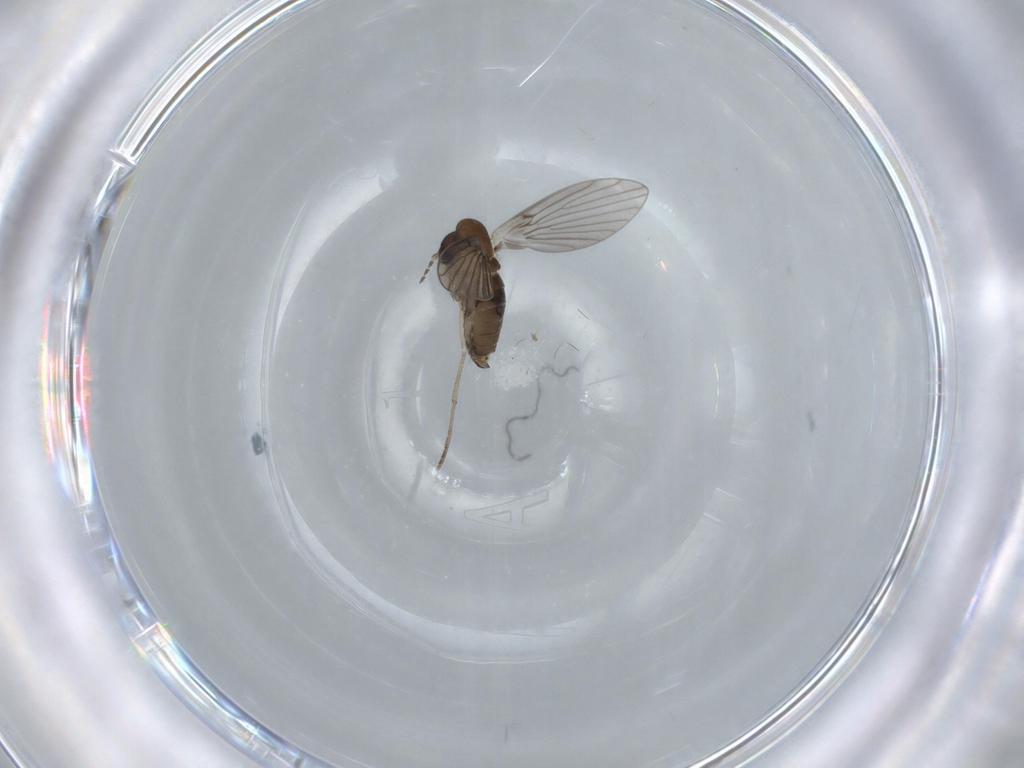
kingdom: Animalia
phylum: Arthropoda
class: Insecta
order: Diptera
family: Psychodidae
